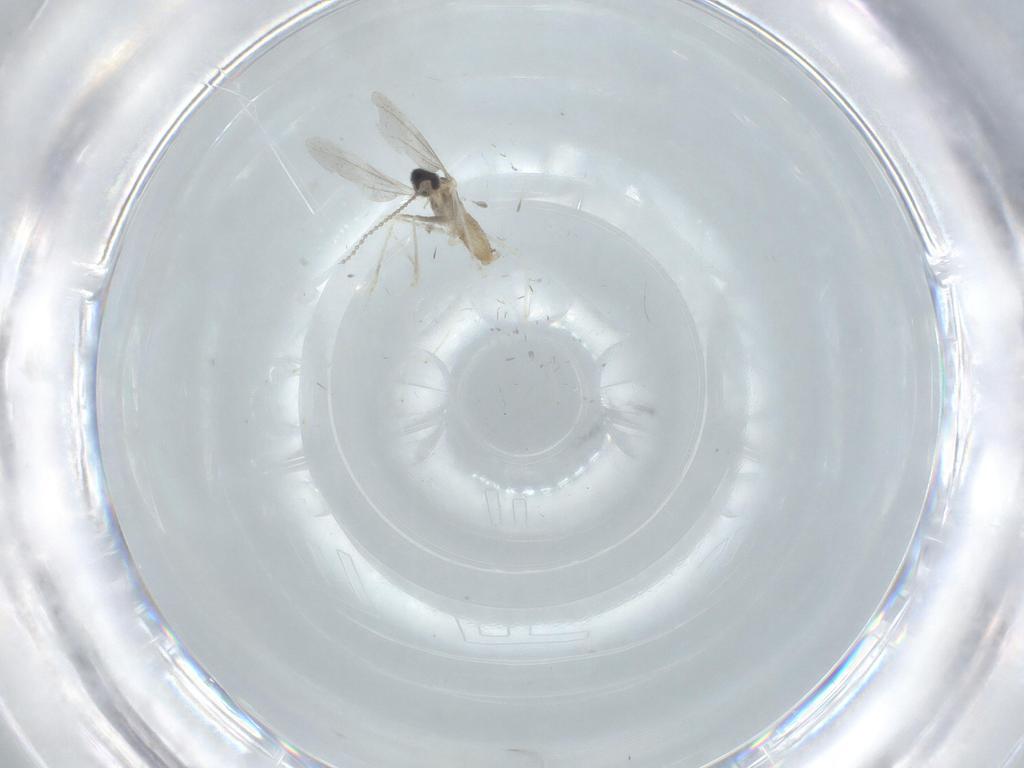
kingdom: Animalia
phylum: Arthropoda
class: Insecta
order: Diptera
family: Cecidomyiidae
